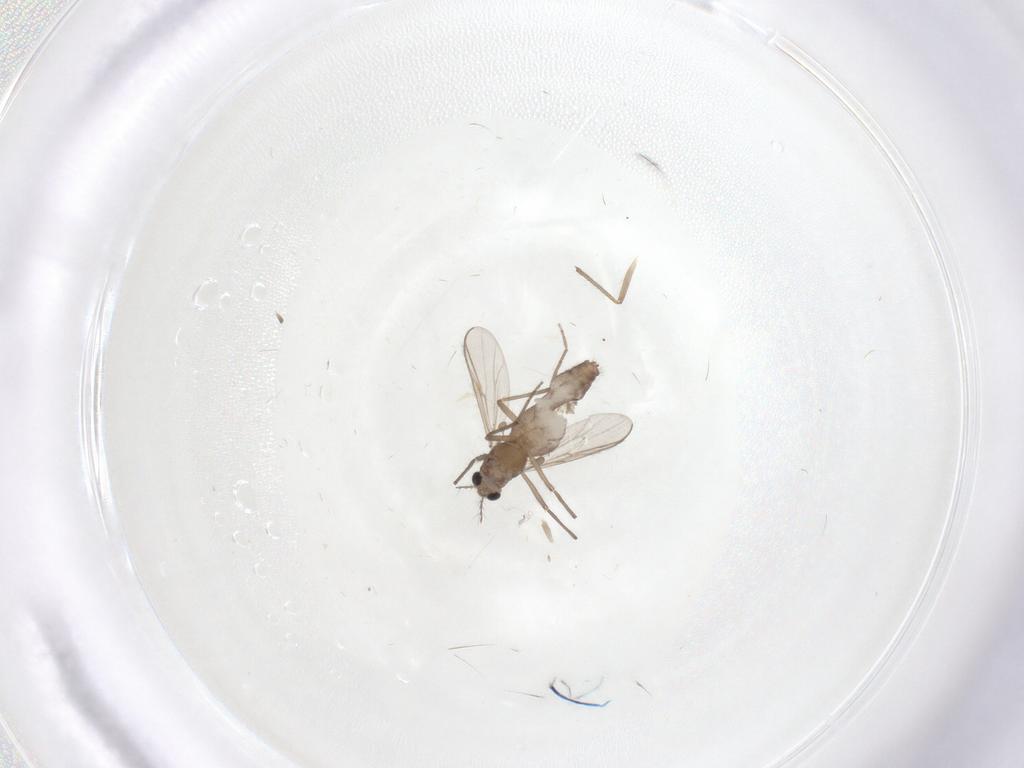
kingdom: Animalia
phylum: Arthropoda
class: Insecta
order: Diptera
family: Chironomidae
